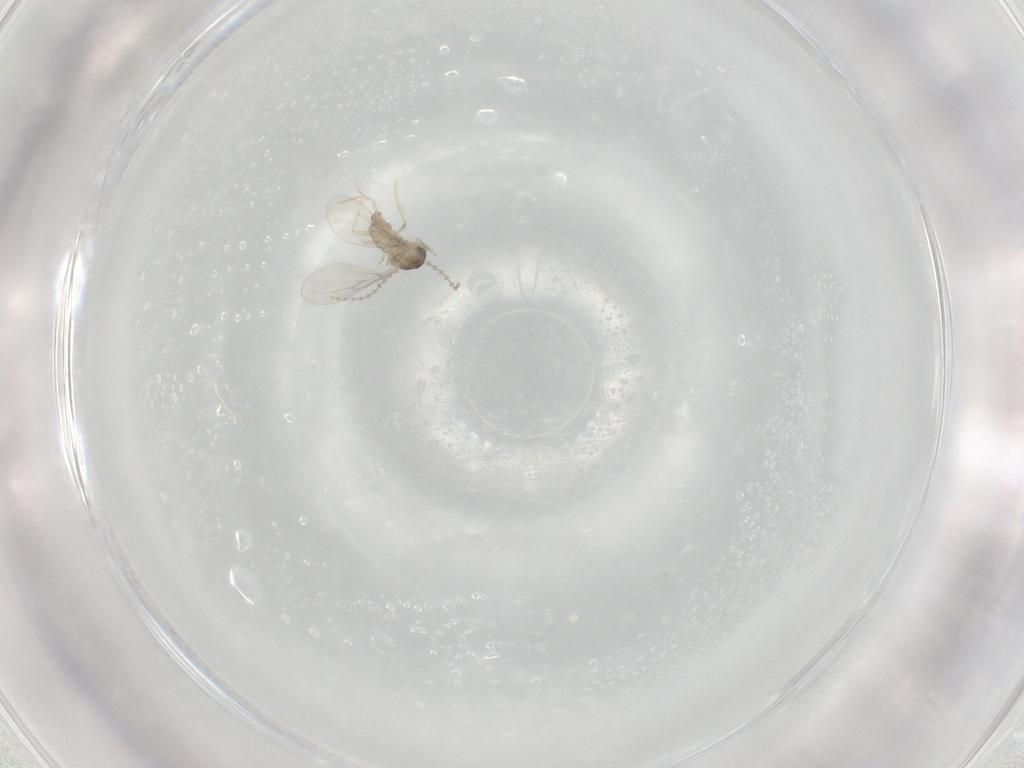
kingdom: Animalia
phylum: Arthropoda
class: Insecta
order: Diptera
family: Cecidomyiidae
